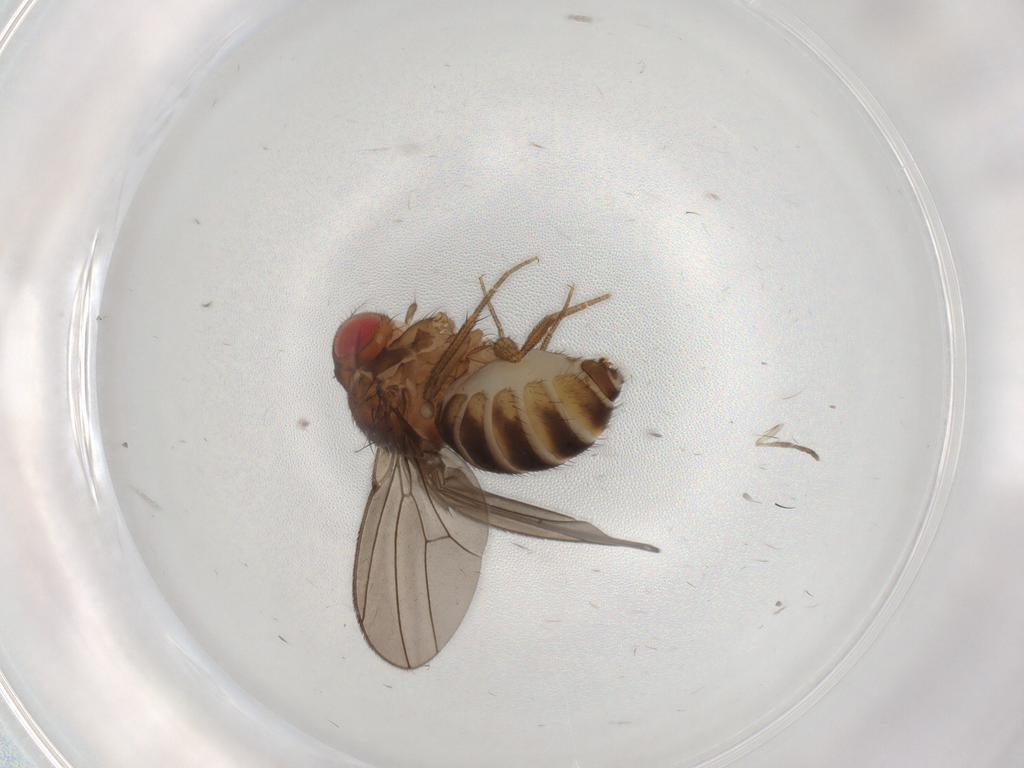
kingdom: Animalia
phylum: Arthropoda
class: Insecta
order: Diptera
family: Drosophilidae
